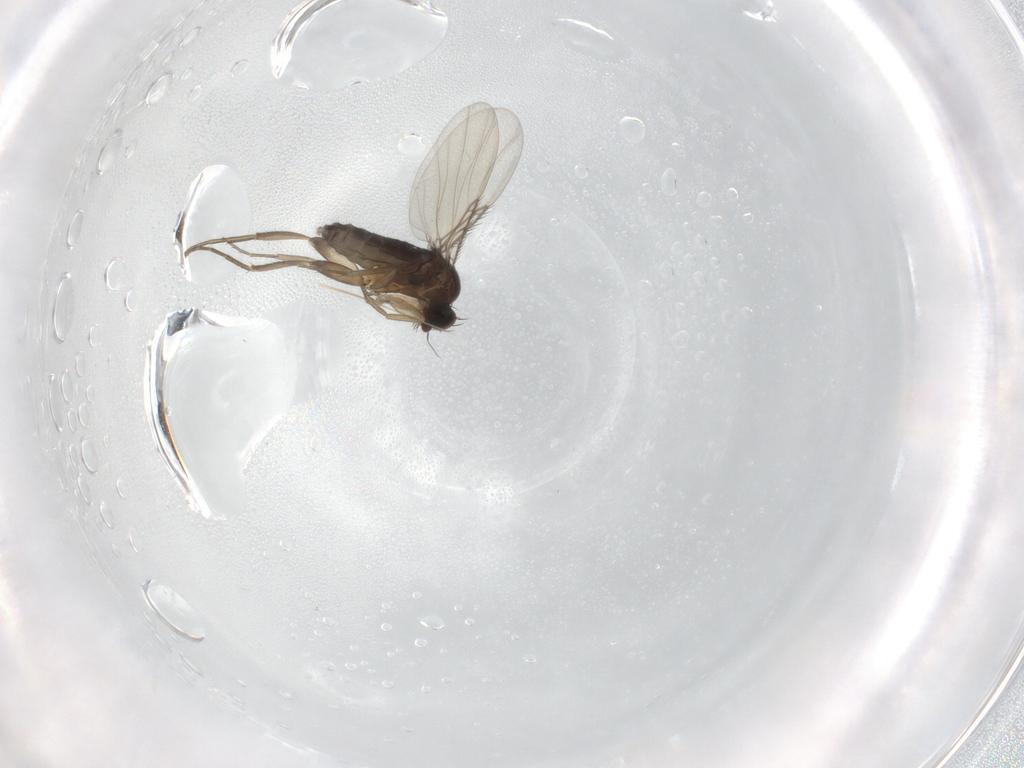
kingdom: Animalia
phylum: Arthropoda
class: Insecta
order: Diptera
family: Phoridae
